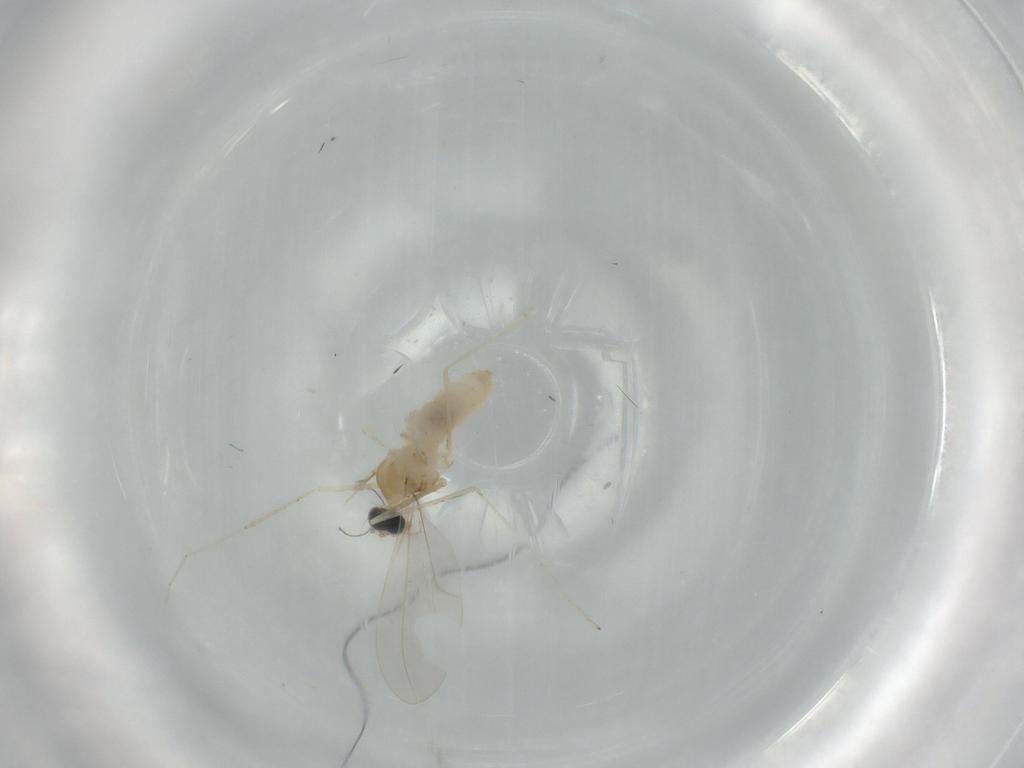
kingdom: Animalia
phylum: Arthropoda
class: Insecta
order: Diptera
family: Cecidomyiidae
